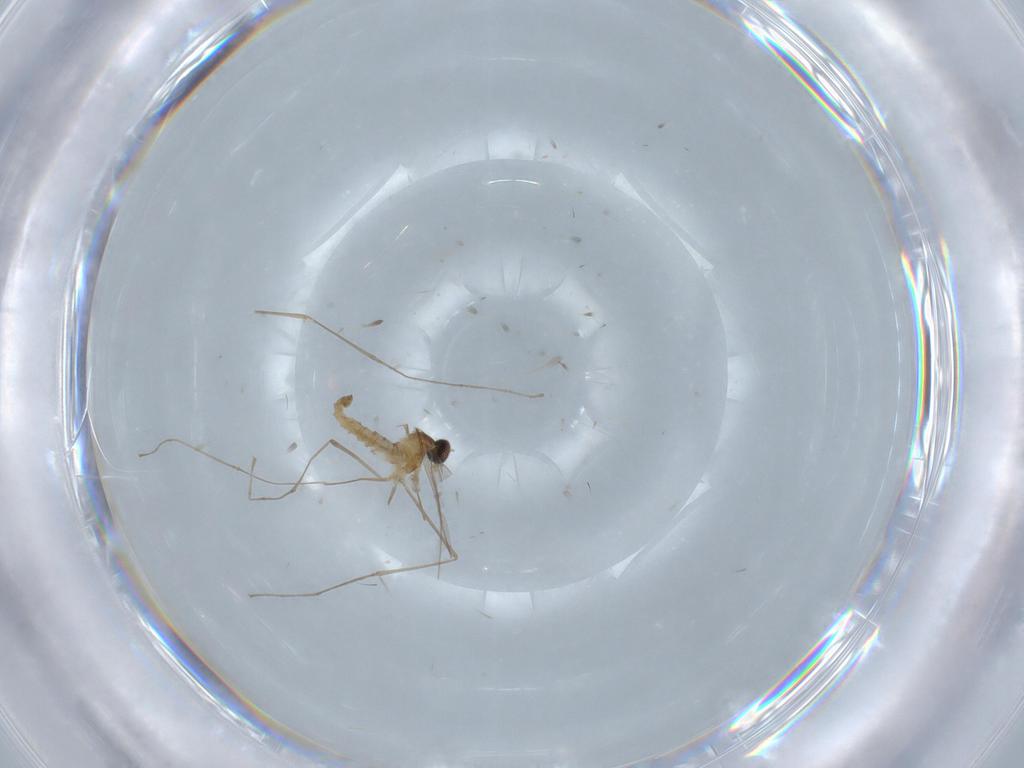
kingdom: Animalia
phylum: Arthropoda
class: Insecta
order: Diptera
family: Cecidomyiidae
